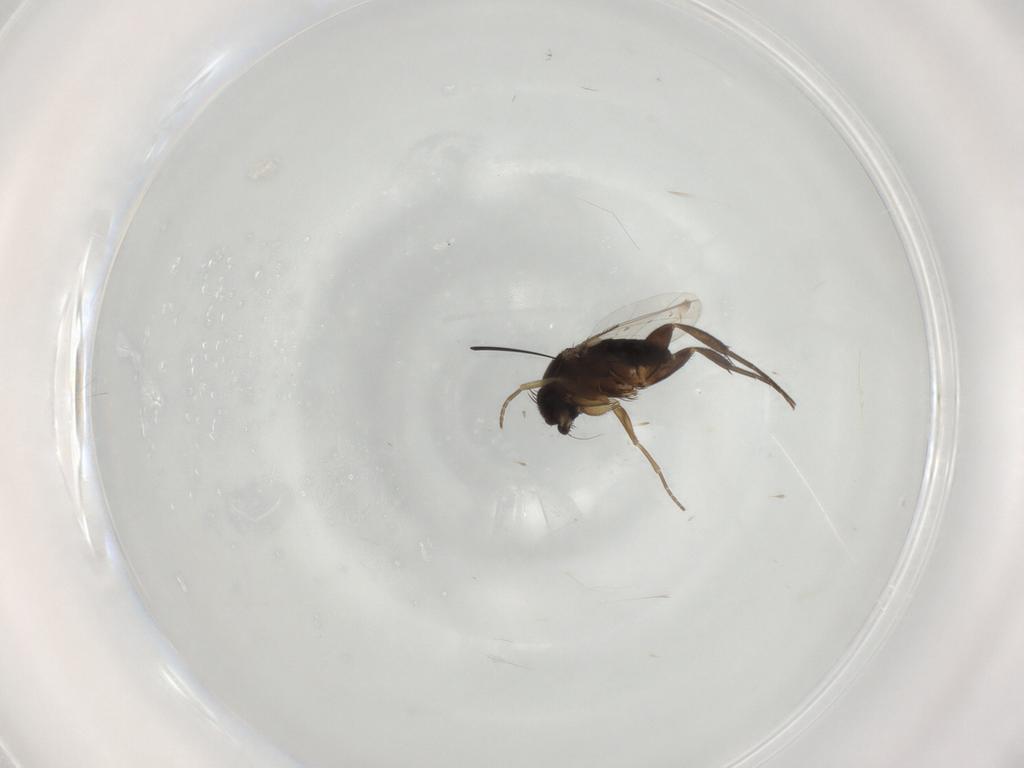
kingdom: Animalia
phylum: Arthropoda
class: Insecta
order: Diptera
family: Phoridae
